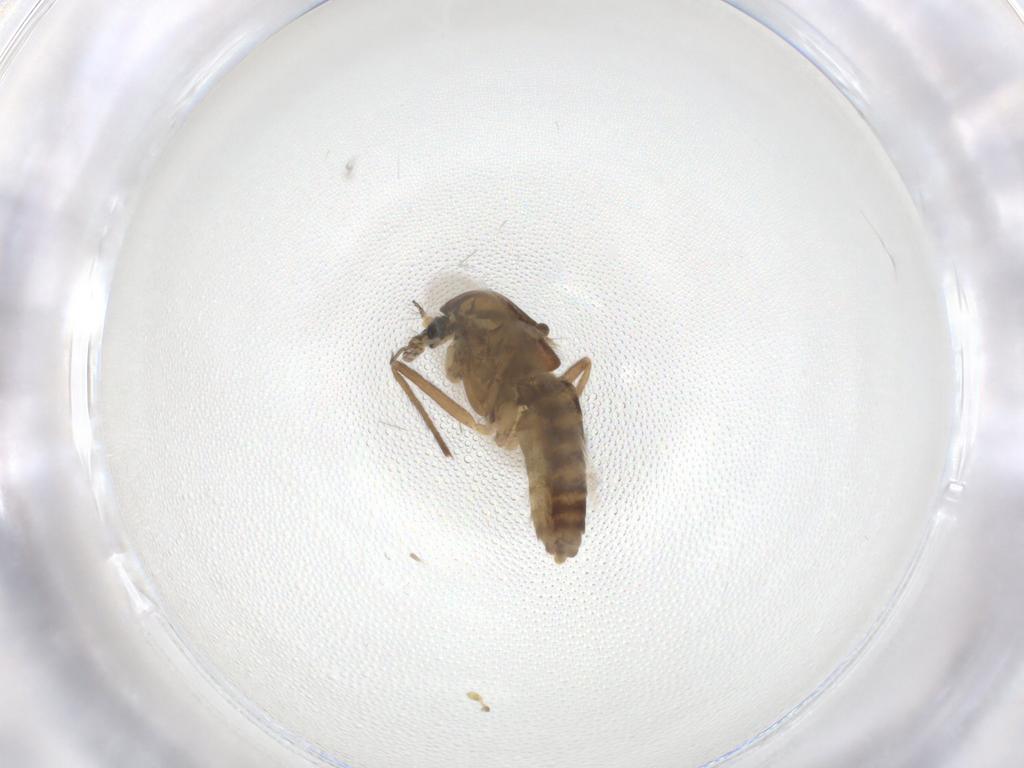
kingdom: Animalia
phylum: Arthropoda
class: Insecta
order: Diptera
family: Chironomidae
